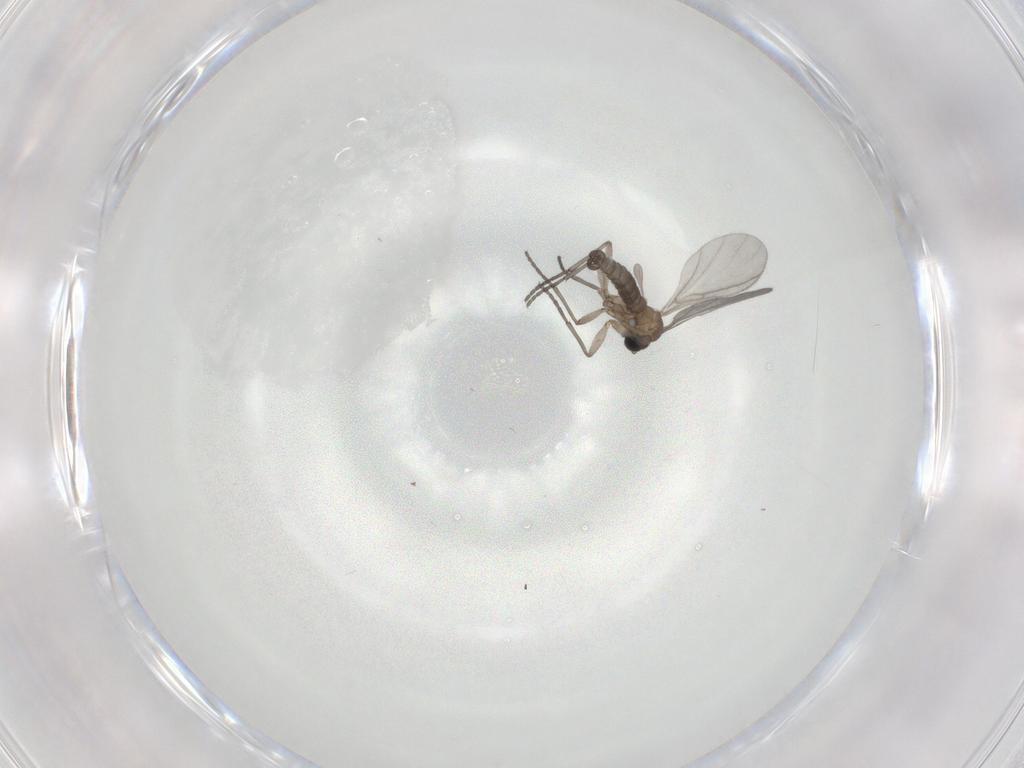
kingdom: Animalia
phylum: Arthropoda
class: Insecta
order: Diptera
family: Sciaridae
